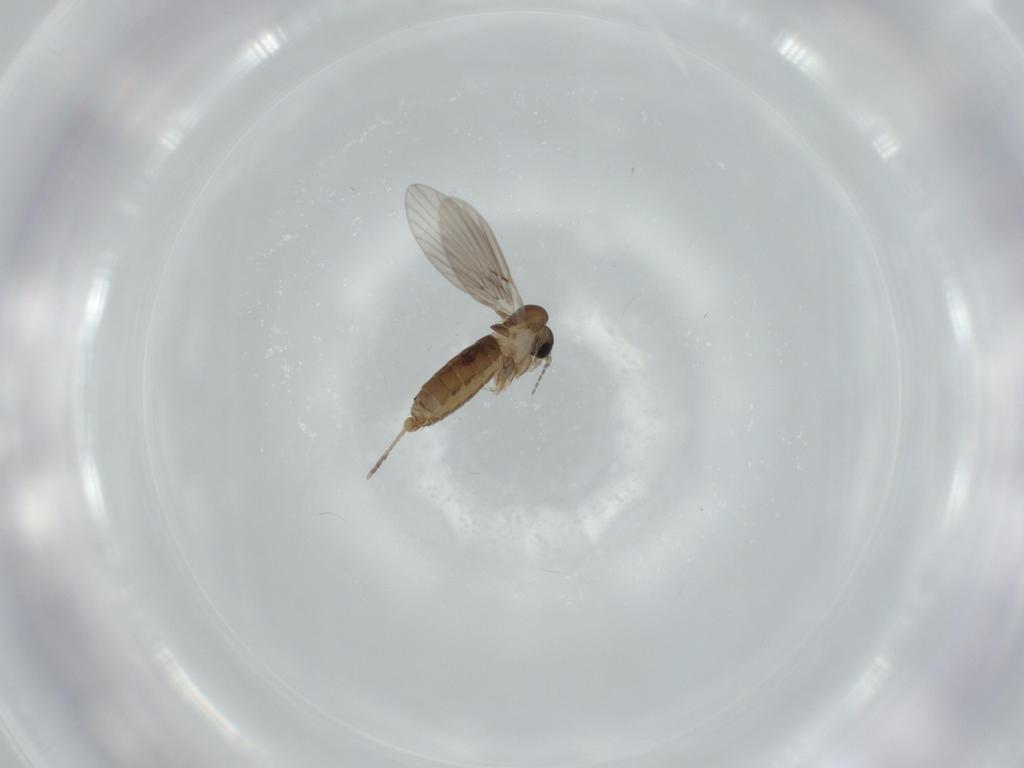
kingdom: Animalia
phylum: Arthropoda
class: Insecta
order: Diptera
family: Psychodidae
